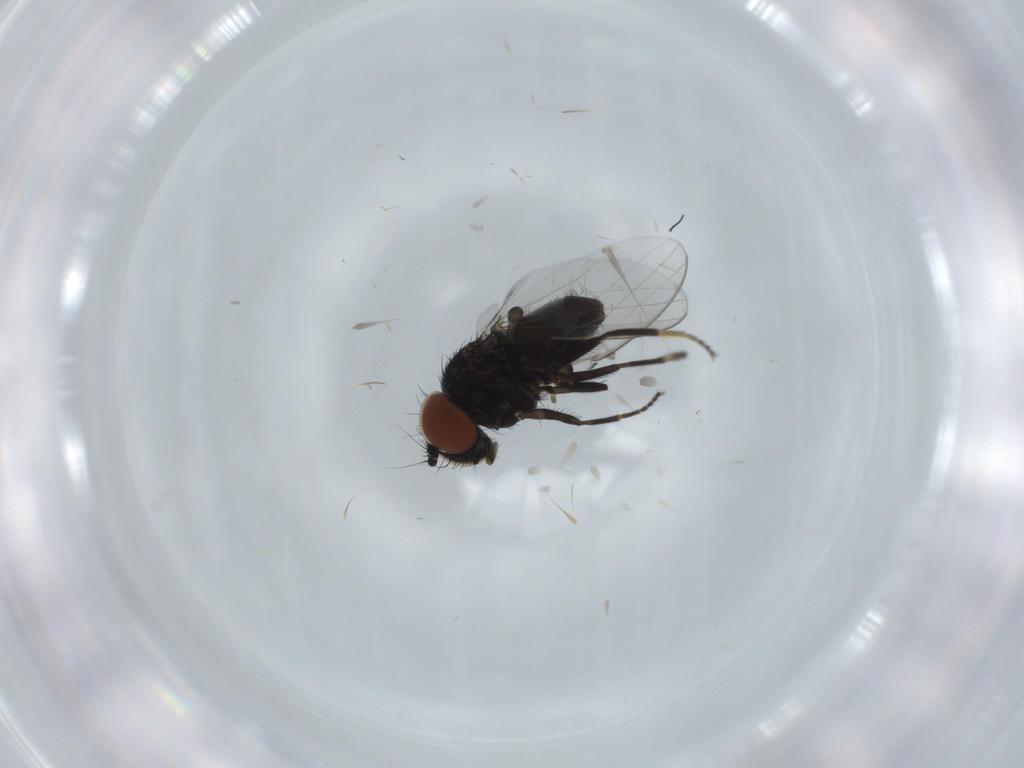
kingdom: Animalia
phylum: Arthropoda
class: Insecta
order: Diptera
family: Milichiidae
